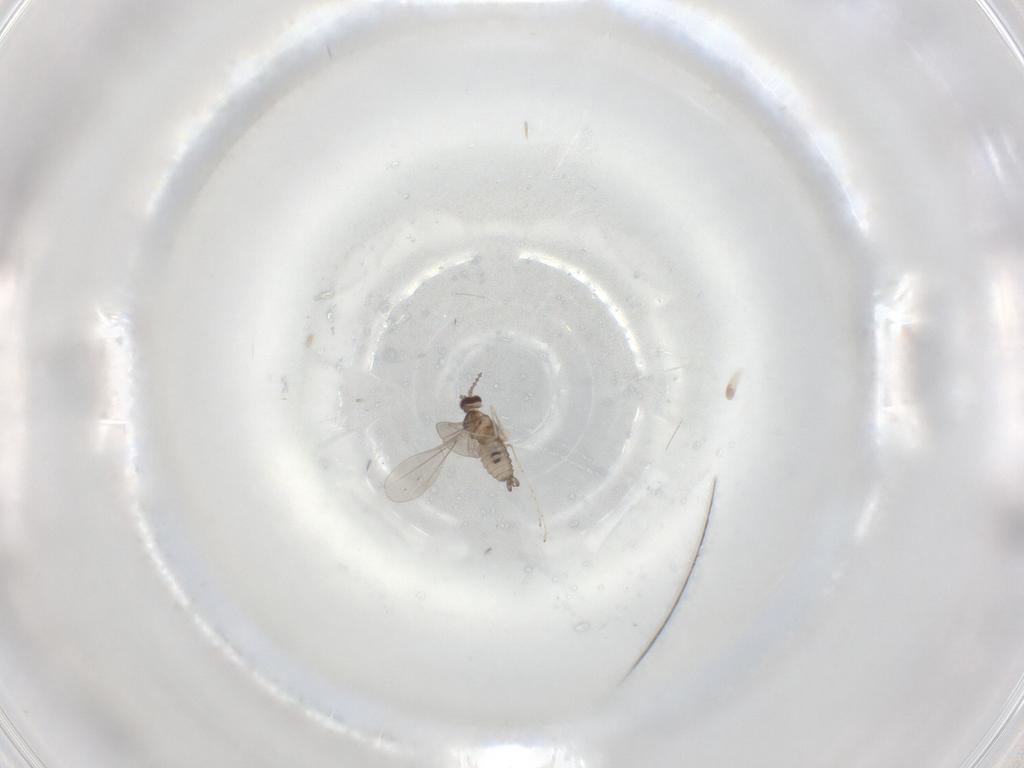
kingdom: Animalia
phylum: Arthropoda
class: Insecta
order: Diptera
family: Cecidomyiidae
